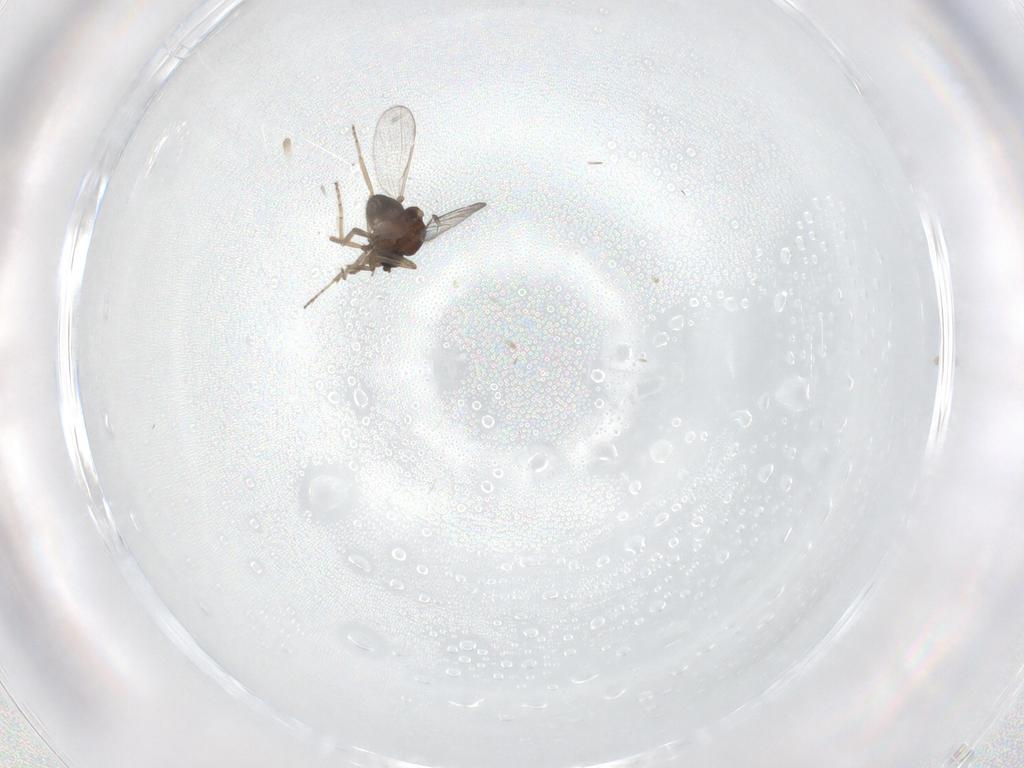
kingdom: Animalia
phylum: Arthropoda
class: Insecta
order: Diptera
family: Ceratopogonidae
